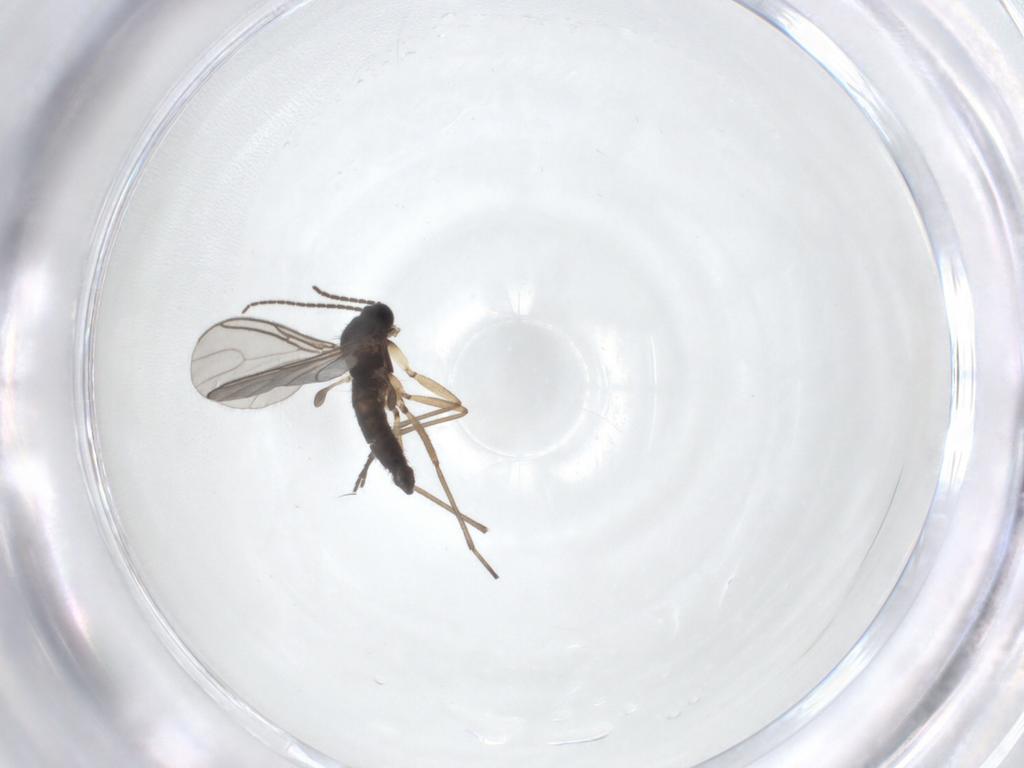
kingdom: Animalia
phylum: Arthropoda
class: Insecta
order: Diptera
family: Sciaridae
